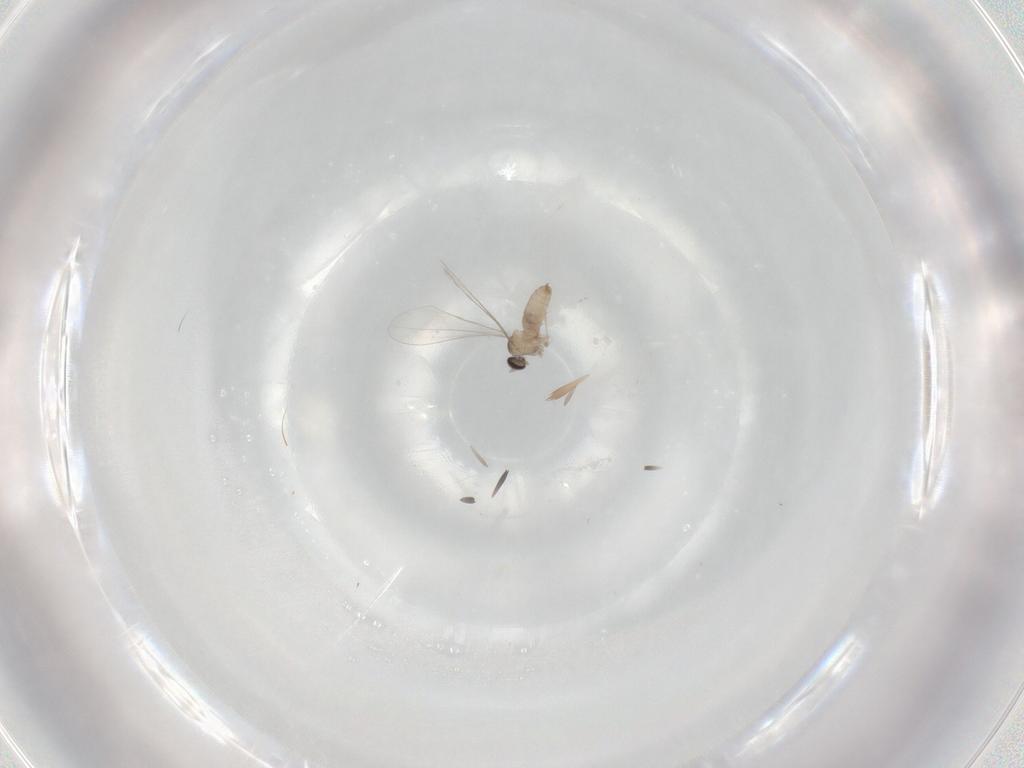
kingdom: Animalia
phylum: Arthropoda
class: Insecta
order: Diptera
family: Cecidomyiidae
